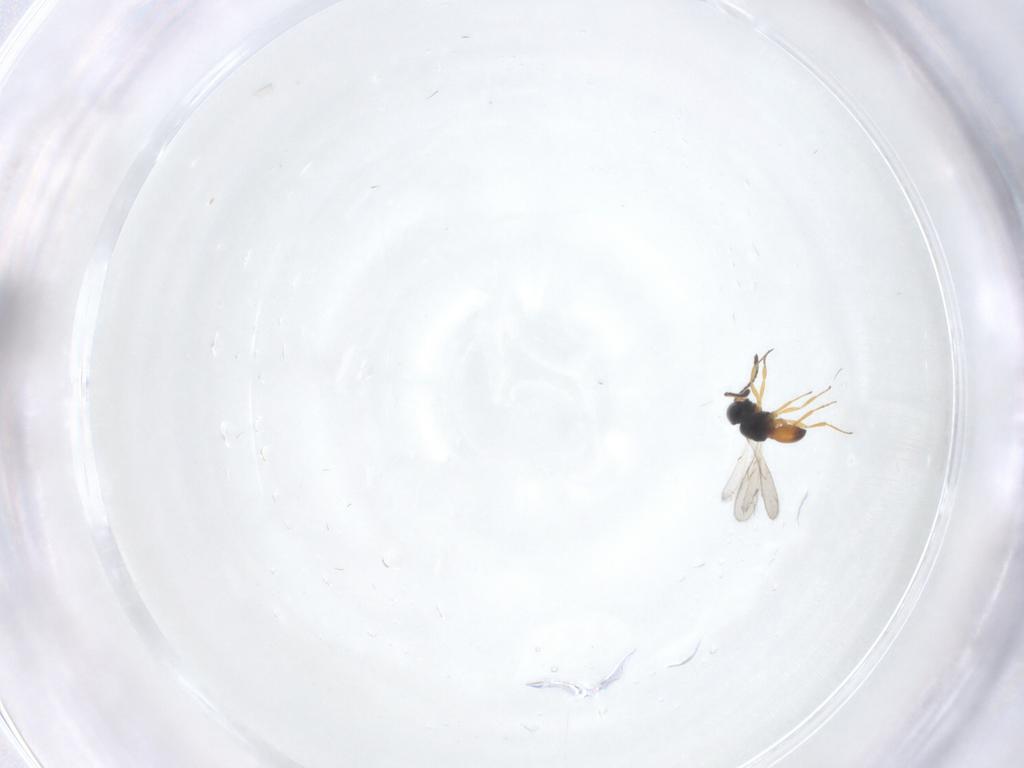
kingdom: Animalia
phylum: Arthropoda
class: Insecta
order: Hymenoptera
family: Scelionidae
